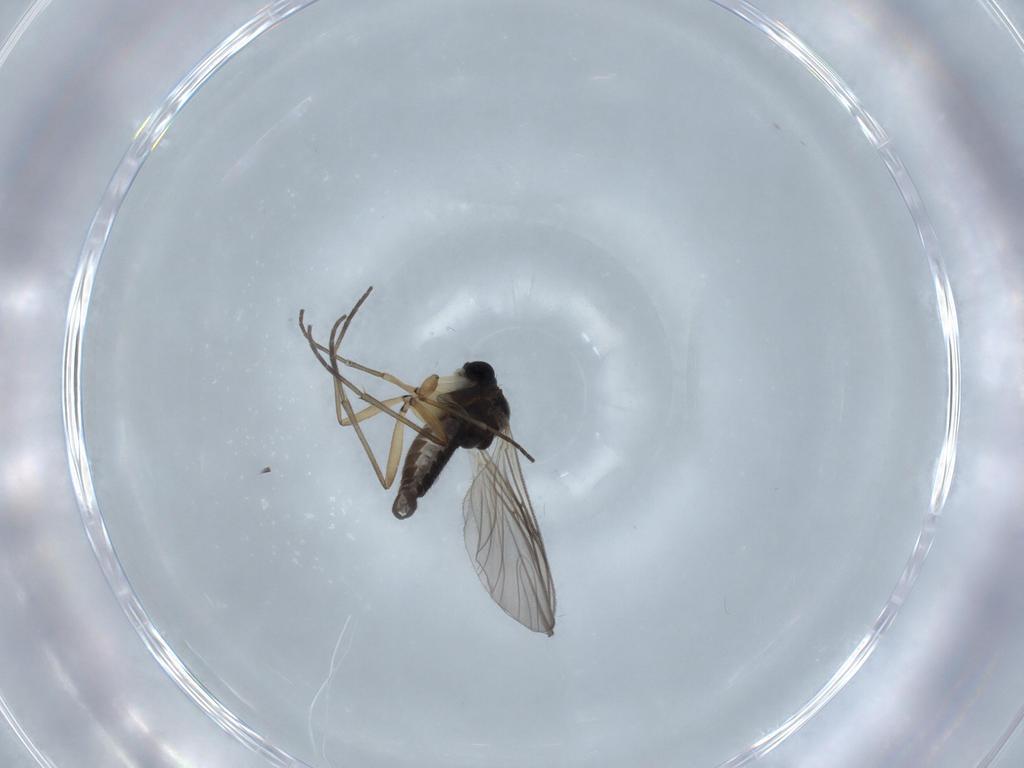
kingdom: Animalia
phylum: Arthropoda
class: Insecta
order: Diptera
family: Sciaridae
